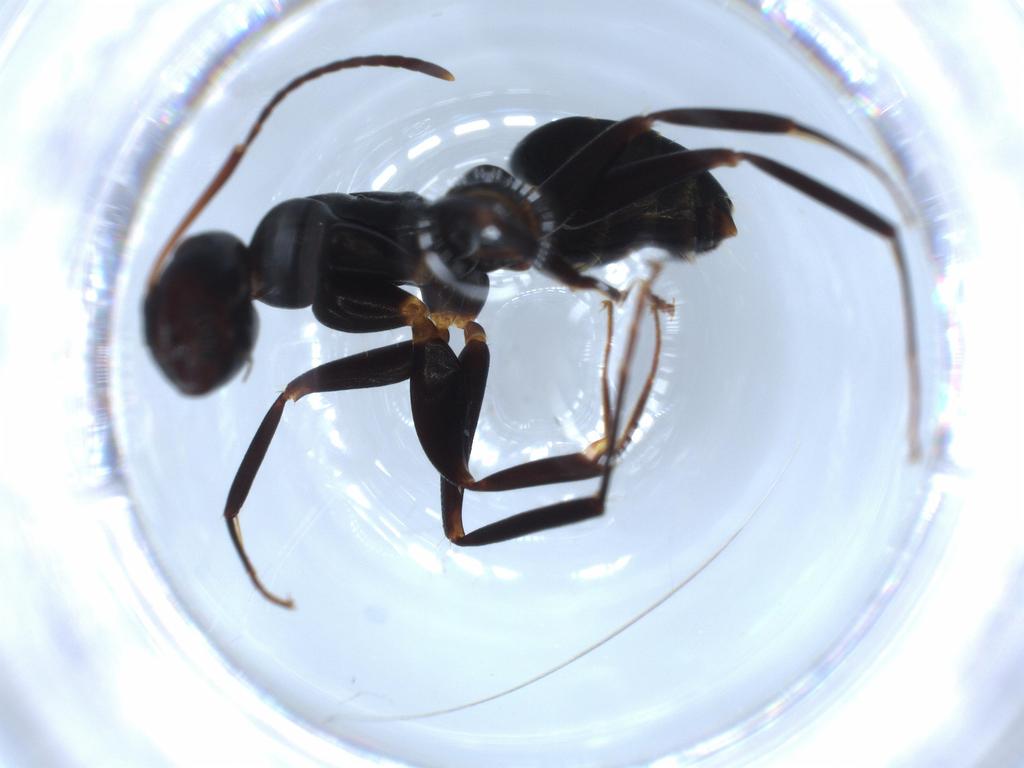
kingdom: Animalia
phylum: Arthropoda
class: Insecta
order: Hymenoptera
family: Formicidae
